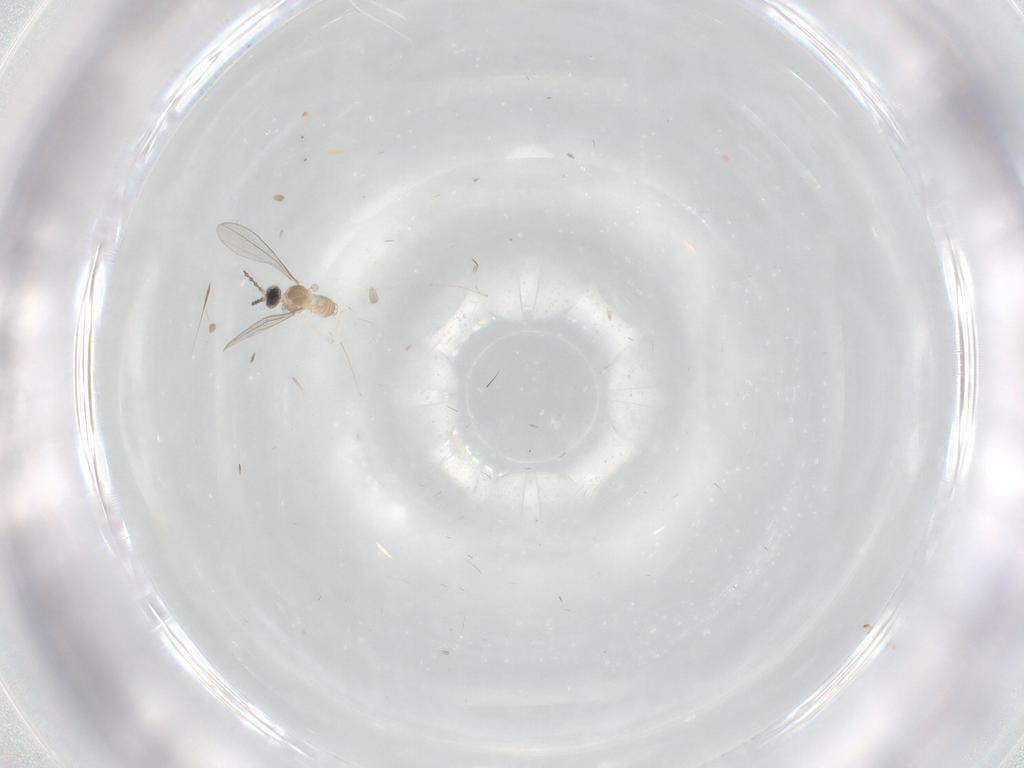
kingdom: Animalia
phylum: Arthropoda
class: Insecta
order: Diptera
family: Cecidomyiidae
